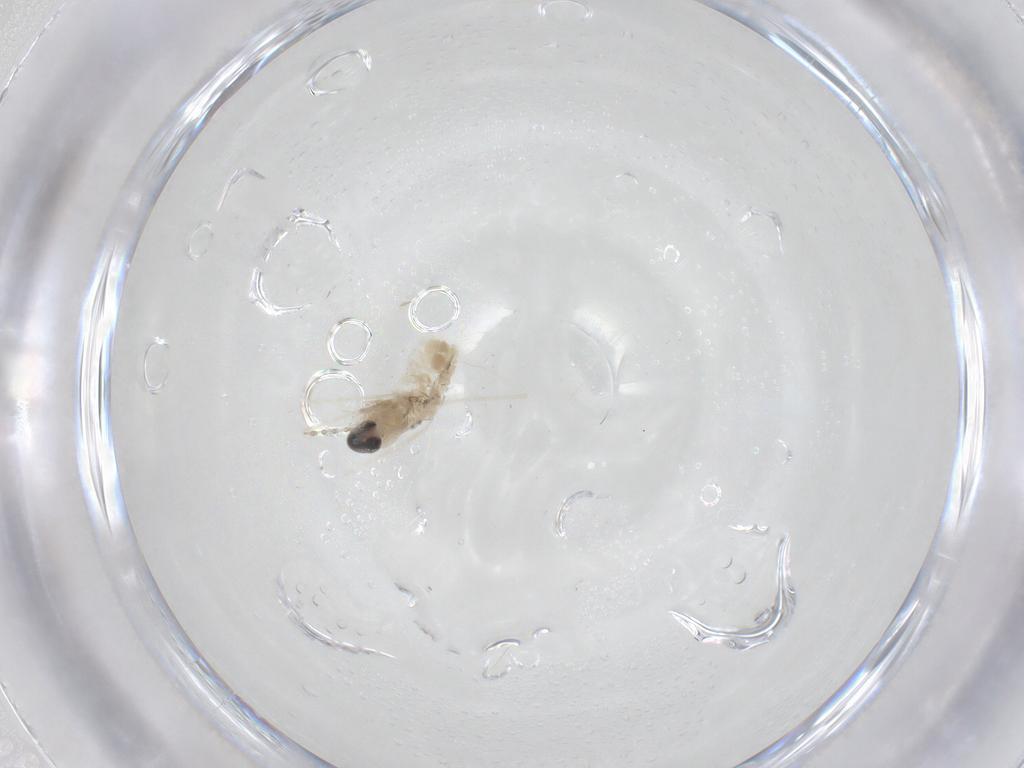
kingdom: Animalia
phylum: Arthropoda
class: Insecta
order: Diptera
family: Cecidomyiidae
